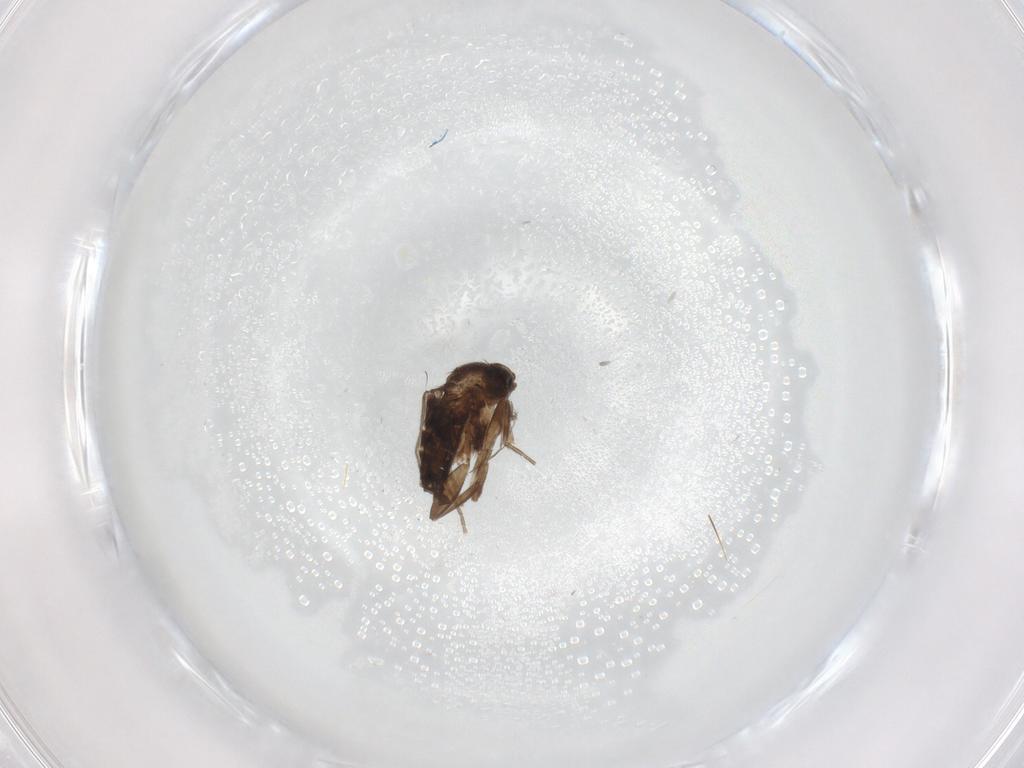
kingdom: Animalia
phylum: Arthropoda
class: Insecta
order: Diptera
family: Chironomidae
